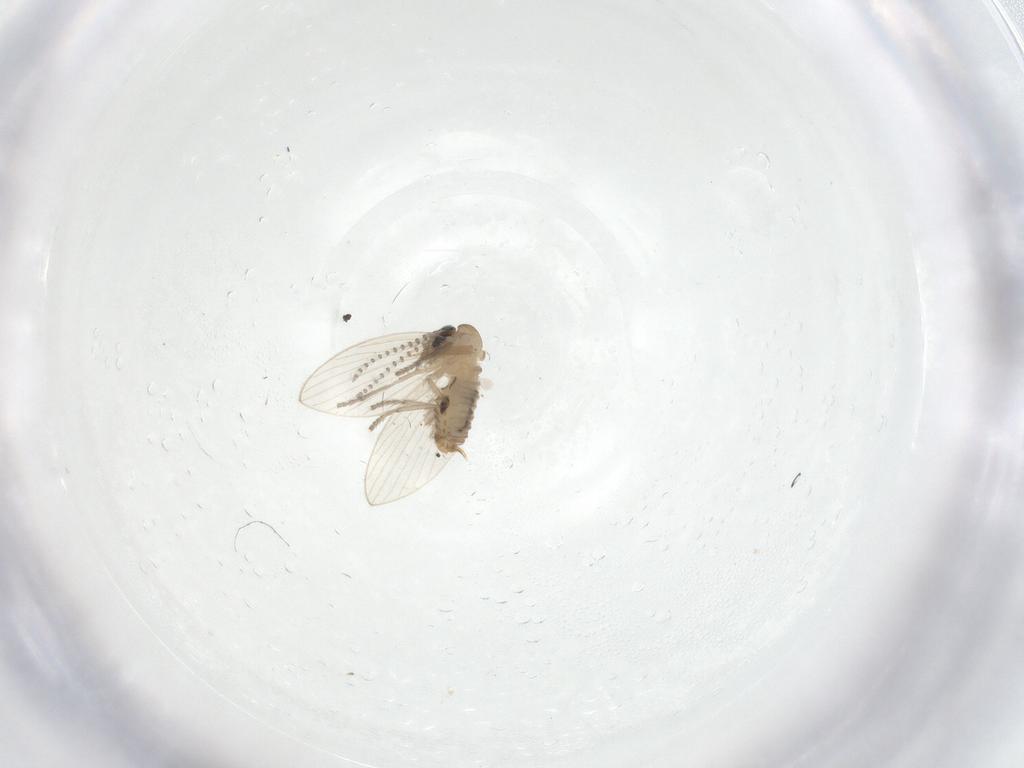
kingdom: Animalia
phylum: Arthropoda
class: Insecta
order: Diptera
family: Psychodidae
